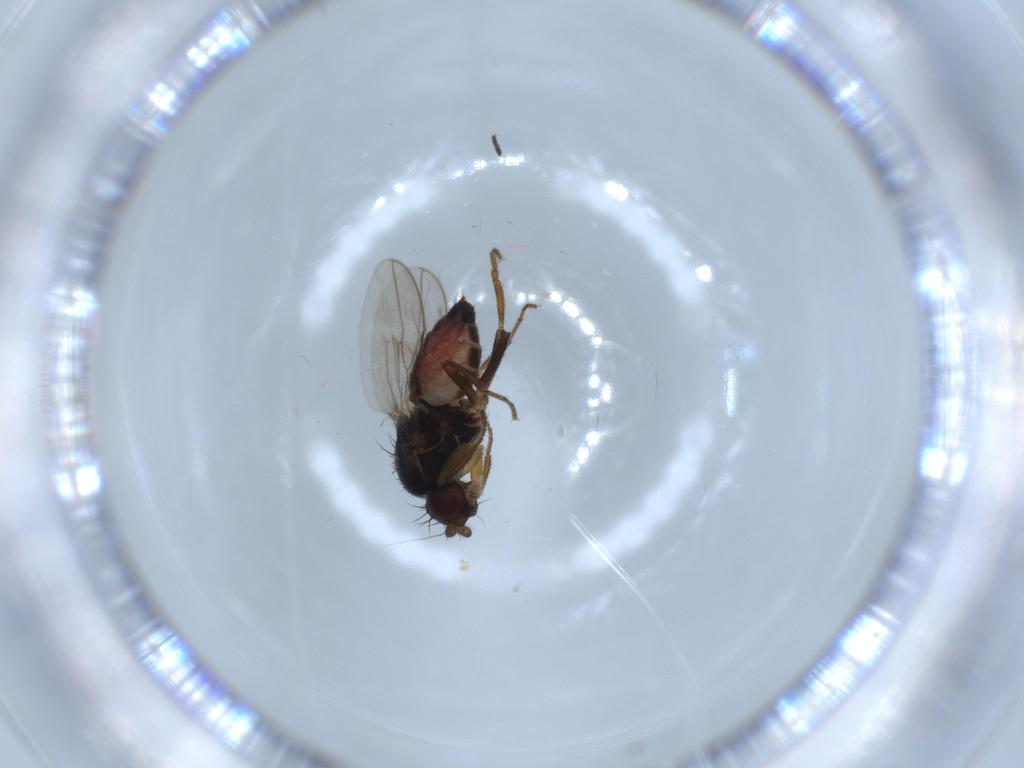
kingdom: Animalia
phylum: Arthropoda
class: Insecta
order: Diptera
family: Sphaeroceridae
